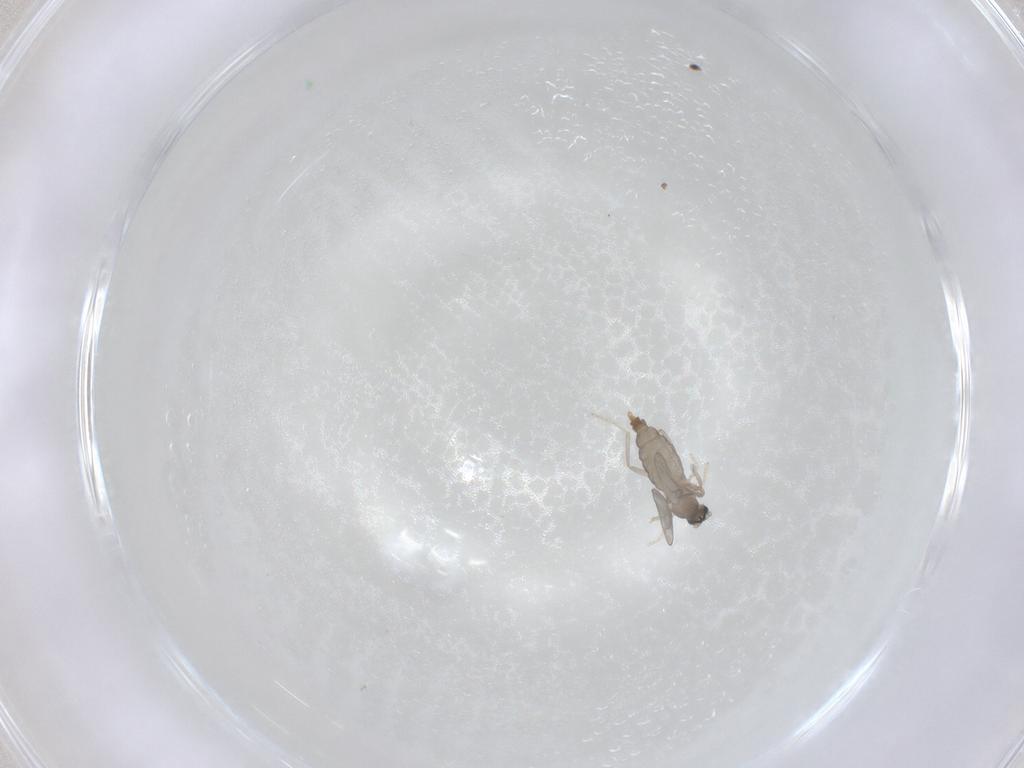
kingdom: Animalia
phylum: Arthropoda
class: Insecta
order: Diptera
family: Cecidomyiidae
